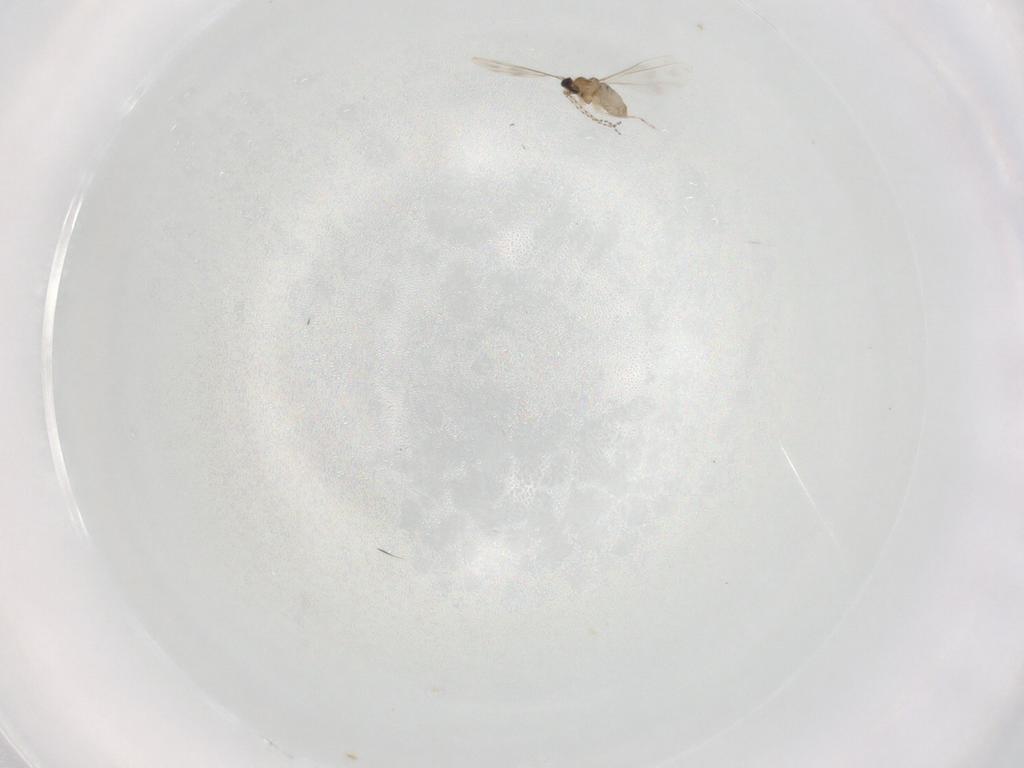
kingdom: Animalia
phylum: Arthropoda
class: Insecta
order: Diptera
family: Cecidomyiidae
